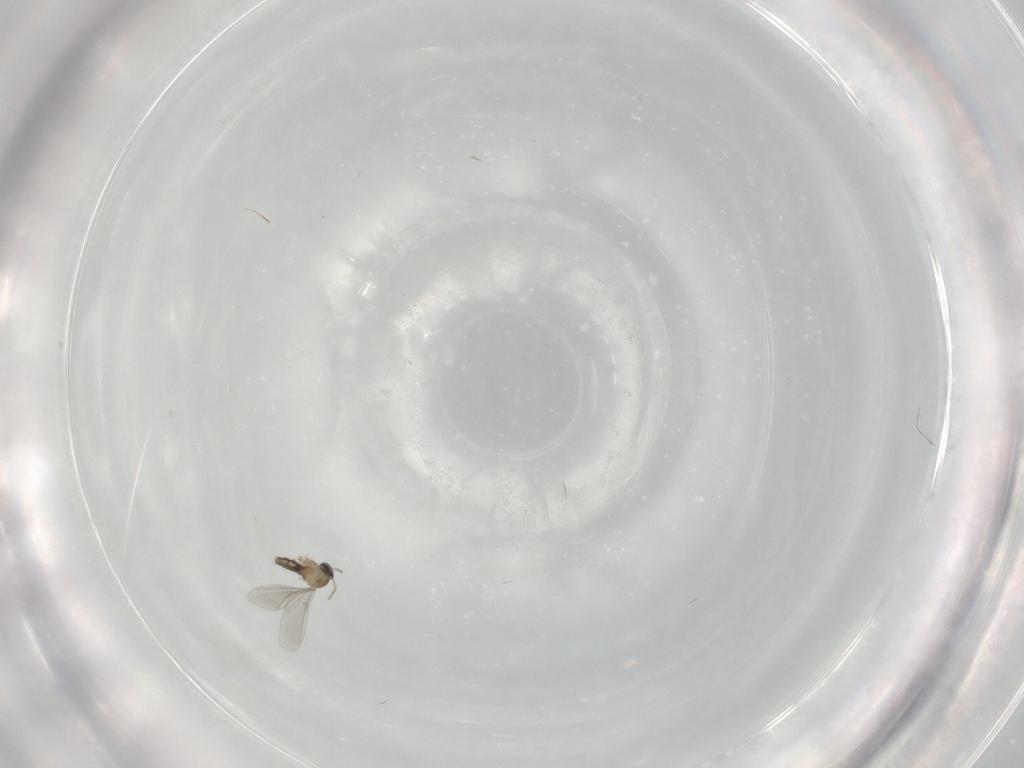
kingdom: Animalia
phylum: Arthropoda
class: Insecta
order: Diptera
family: Cecidomyiidae
